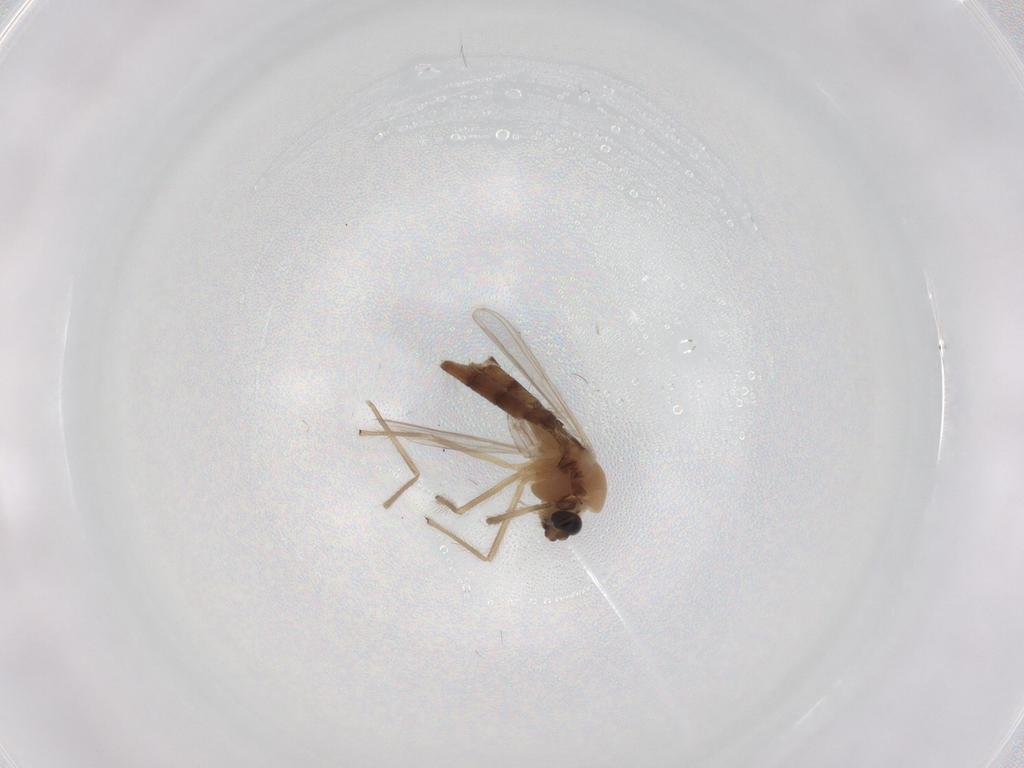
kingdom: Animalia
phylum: Arthropoda
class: Insecta
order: Diptera
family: Chironomidae
